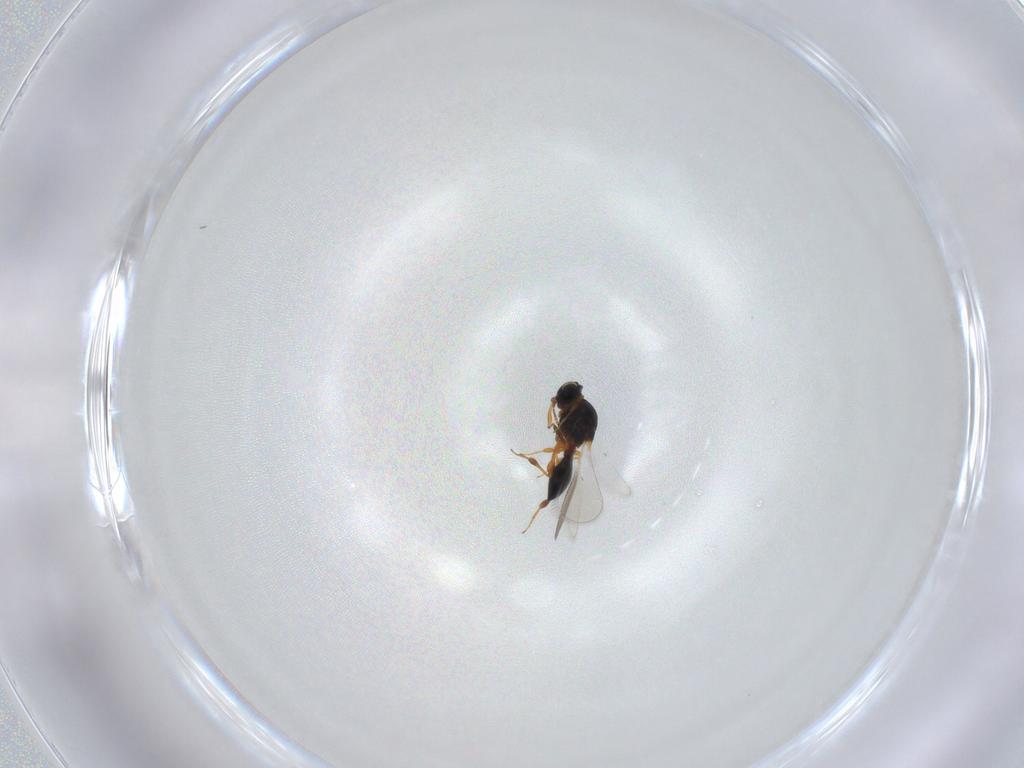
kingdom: Animalia
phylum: Arthropoda
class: Insecta
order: Hymenoptera
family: Platygastridae
